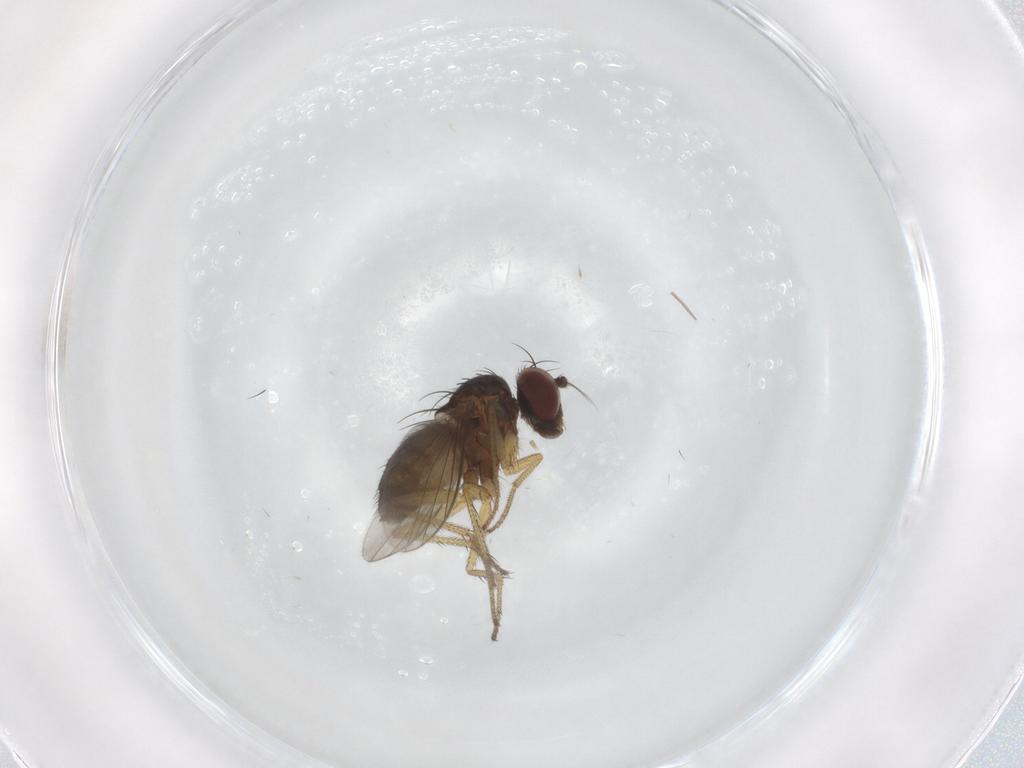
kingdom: Animalia
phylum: Arthropoda
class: Insecta
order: Diptera
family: Dolichopodidae
